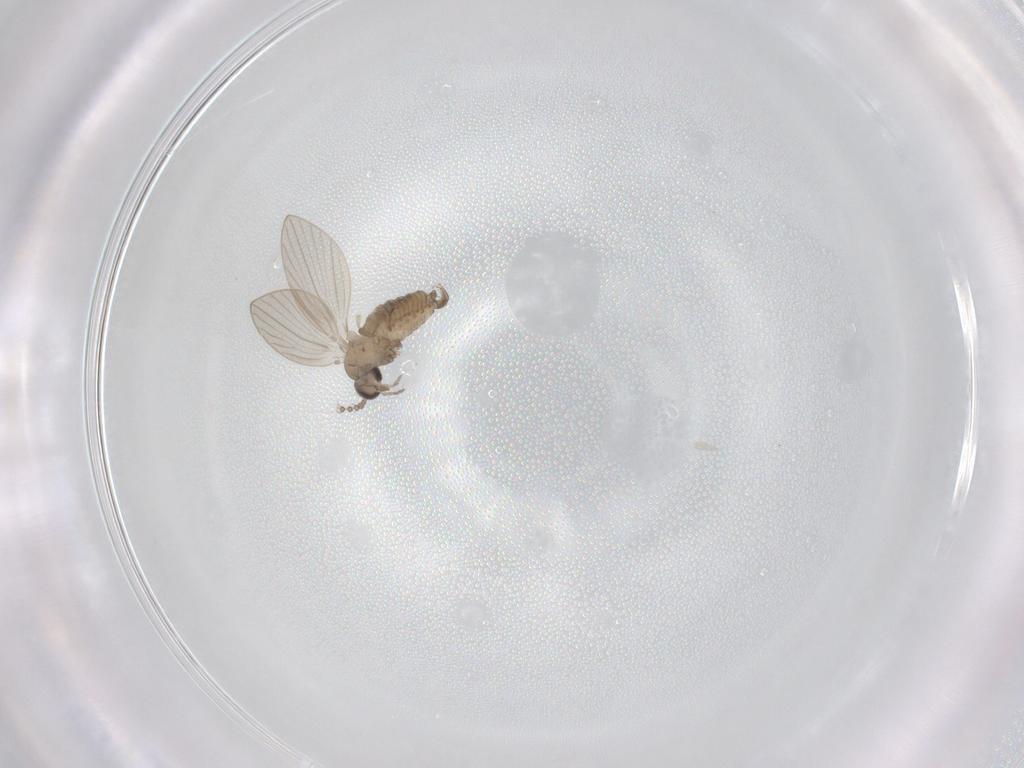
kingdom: Animalia
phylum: Arthropoda
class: Insecta
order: Diptera
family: Psychodidae
